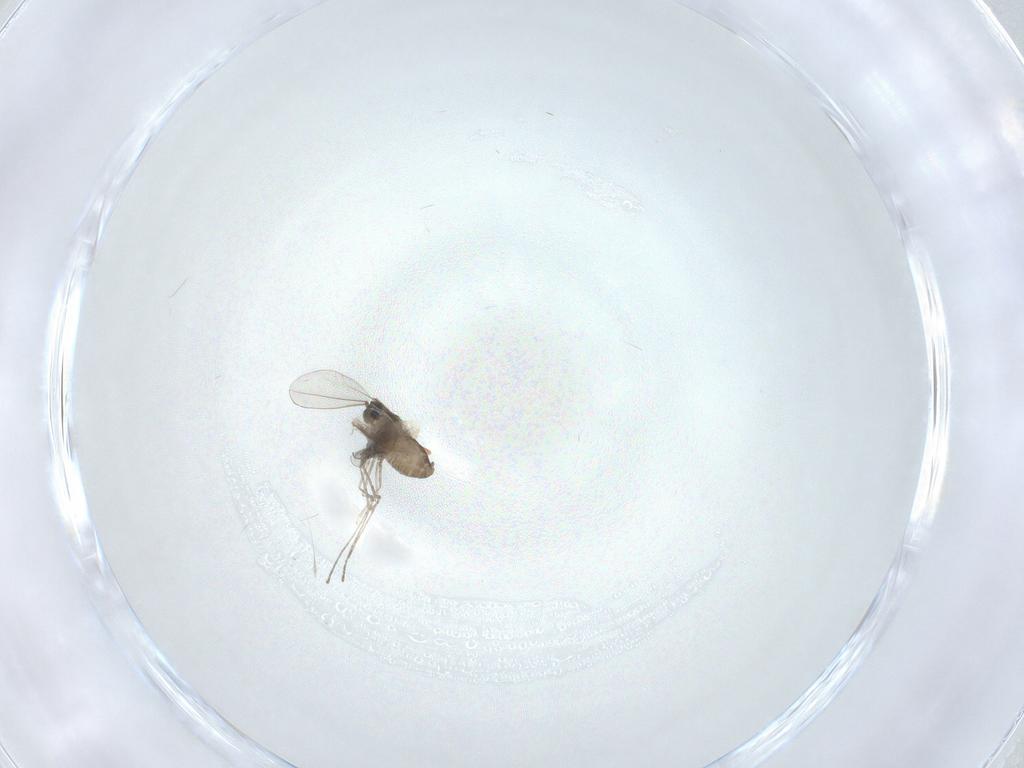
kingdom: Animalia
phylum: Arthropoda
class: Insecta
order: Diptera
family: Cecidomyiidae
